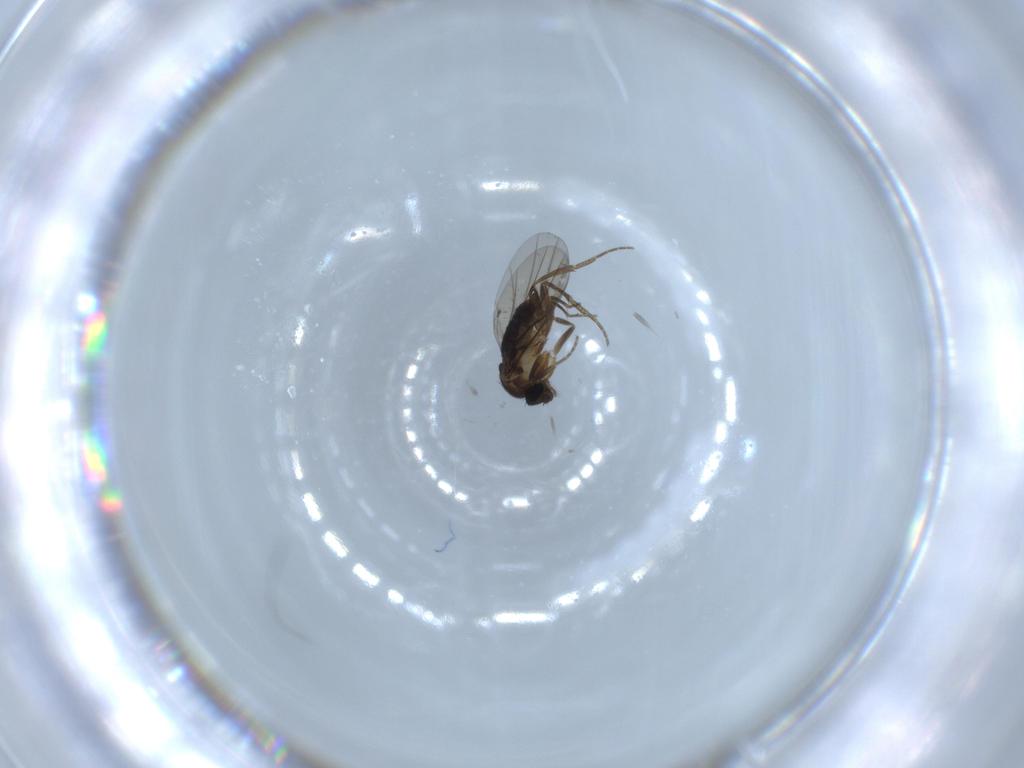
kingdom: Animalia
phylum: Arthropoda
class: Insecta
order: Diptera
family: Phoridae
